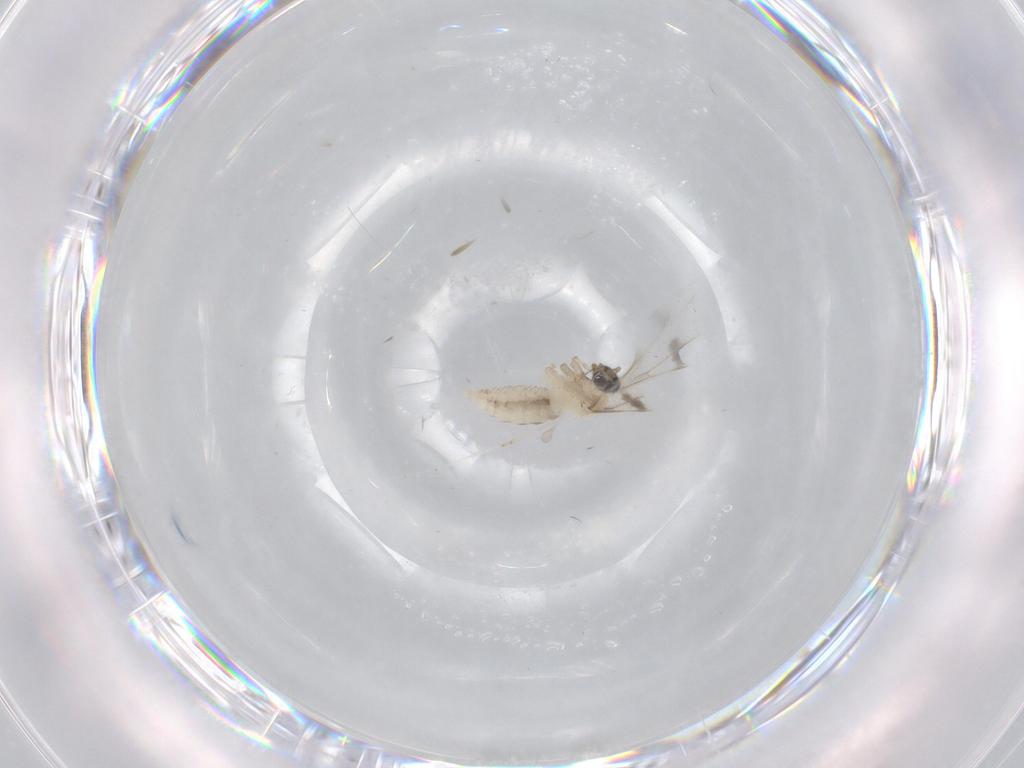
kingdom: Animalia
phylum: Arthropoda
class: Insecta
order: Diptera
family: Cecidomyiidae
